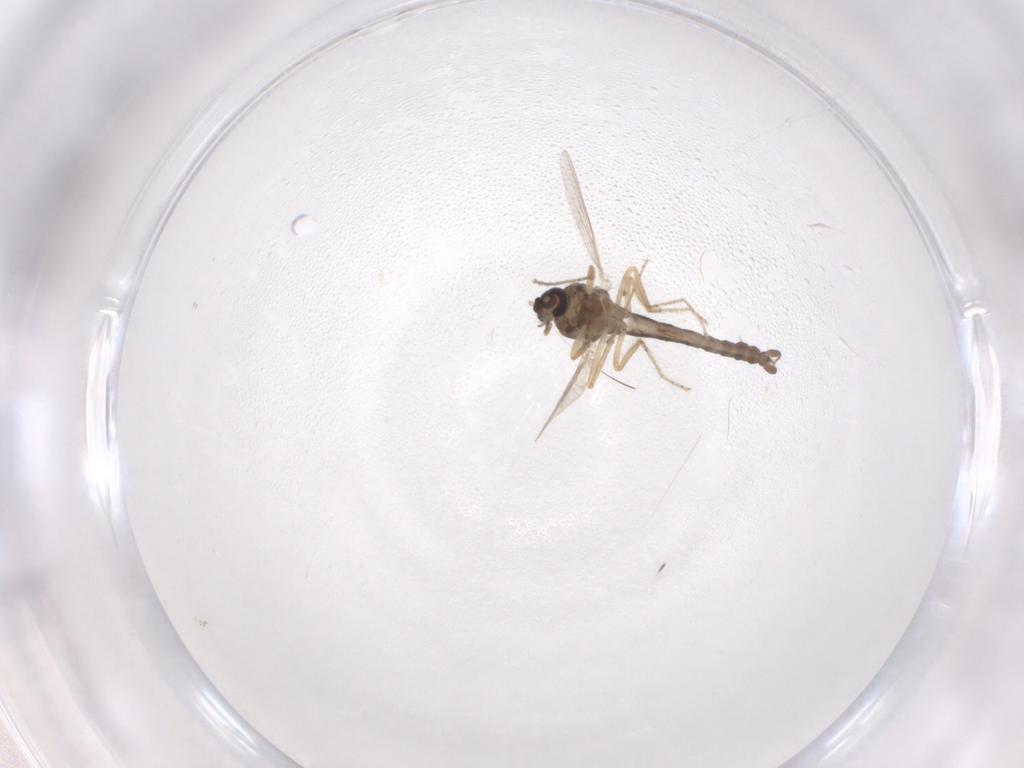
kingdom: Animalia
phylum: Arthropoda
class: Insecta
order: Diptera
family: Ceratopogonidae
